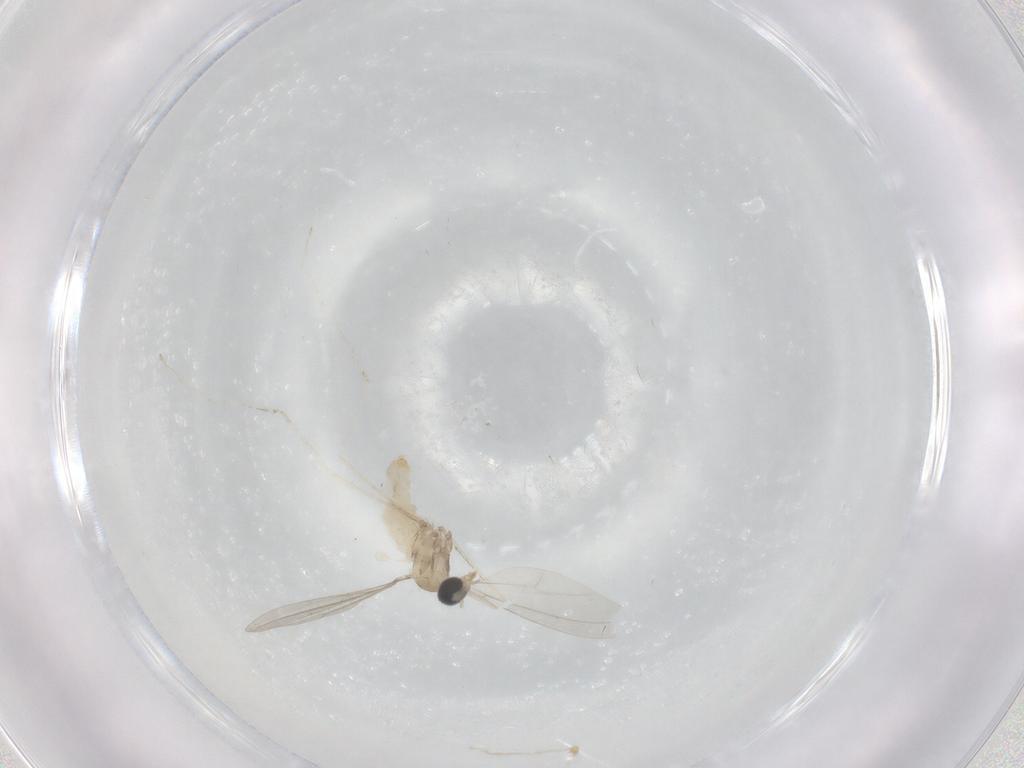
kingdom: Animalia
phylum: Arthropoda
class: Insecta
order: Diptera
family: Cecidomyiidae
